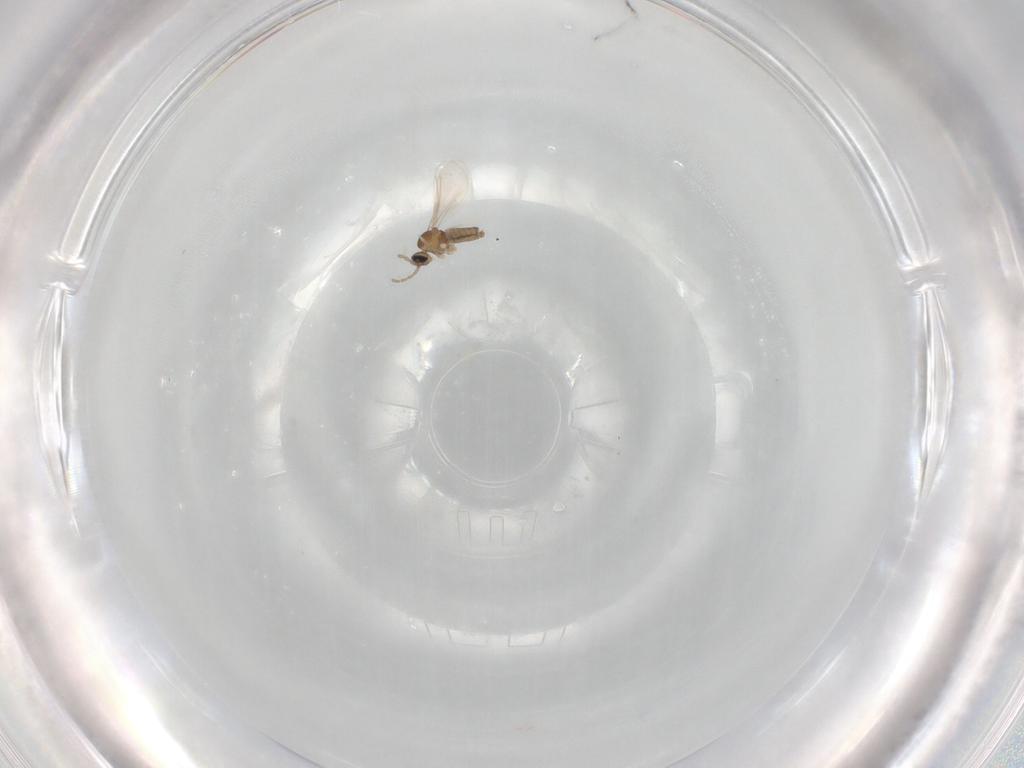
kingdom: Animalia
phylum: Arthropoda
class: Insecta
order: Diptera
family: Cecidomyiidae
